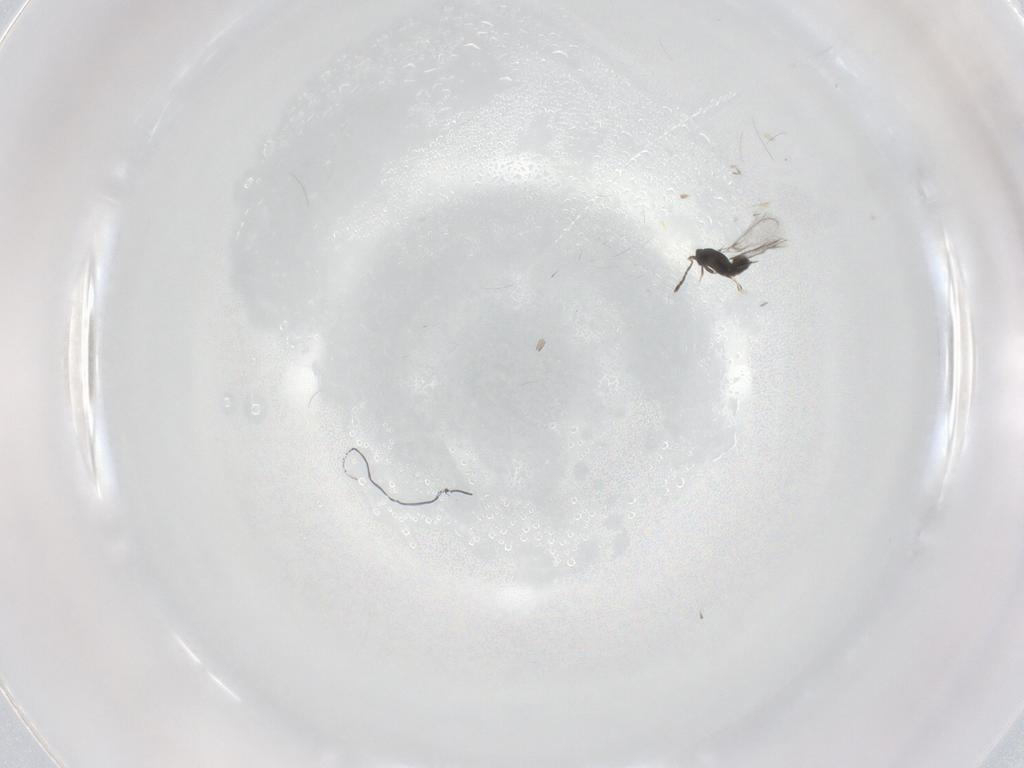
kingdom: Animalia
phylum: Arthropoda
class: Insecta
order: Hymenoptera
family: Mymaridae
